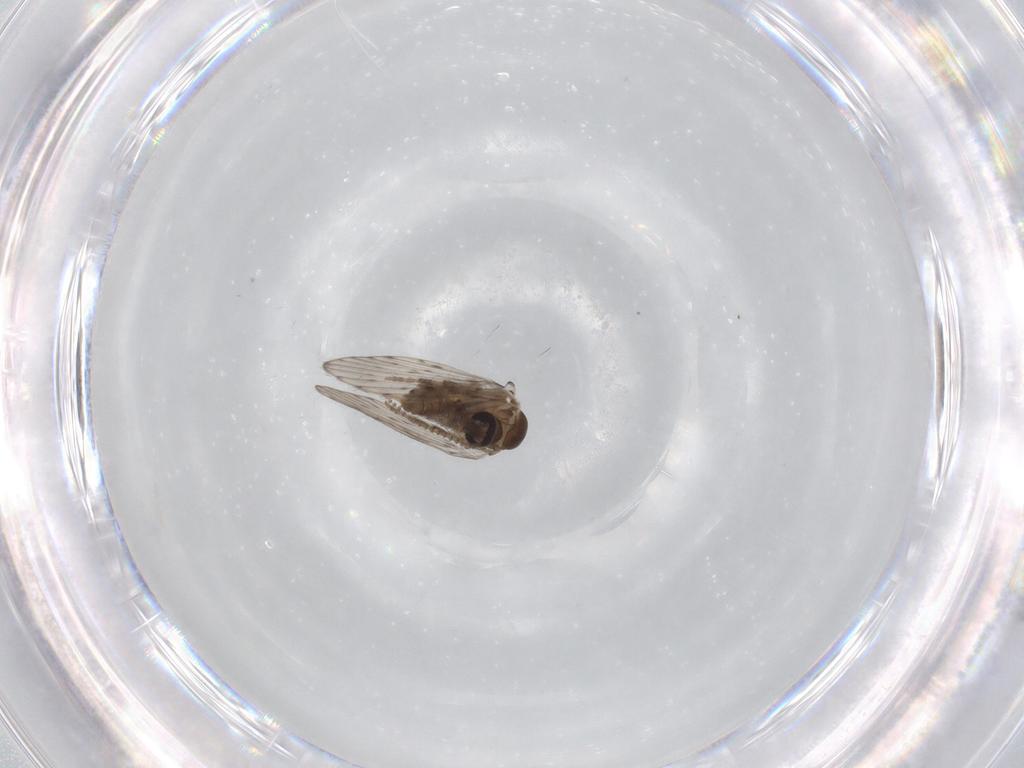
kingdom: Animalia
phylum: Arthropoda
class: Insecta
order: Diptera
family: Psychodidae
